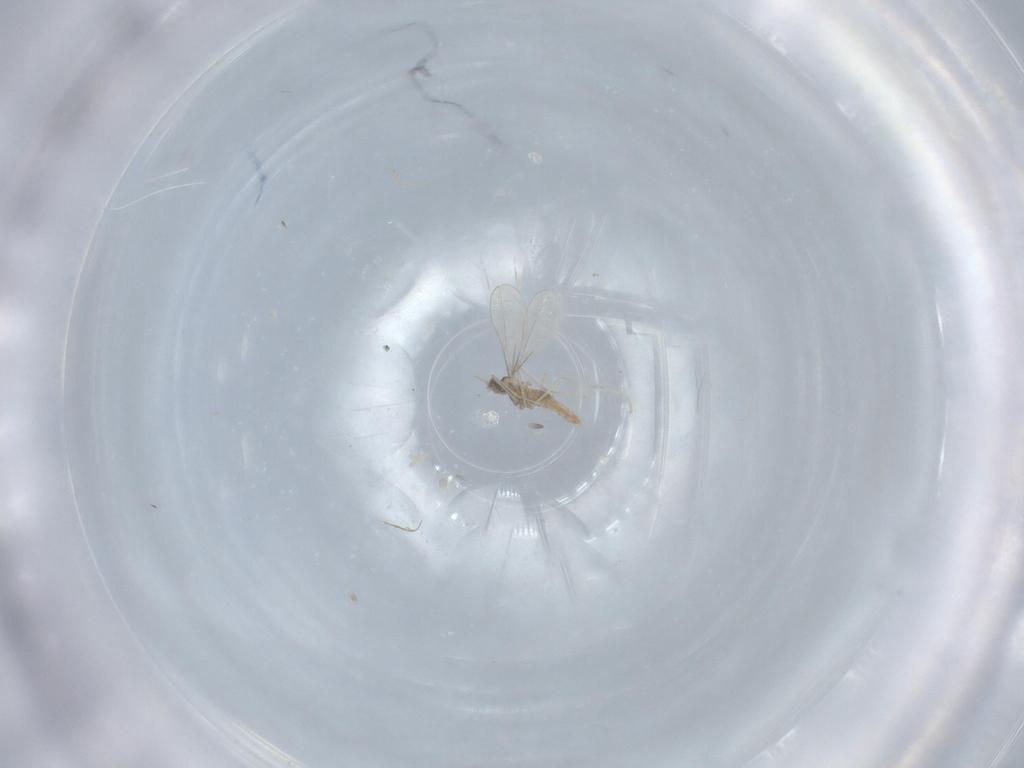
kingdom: Animalia
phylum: Arthropoda
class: Insecta
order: Diptera
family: Cecidomyiidae
